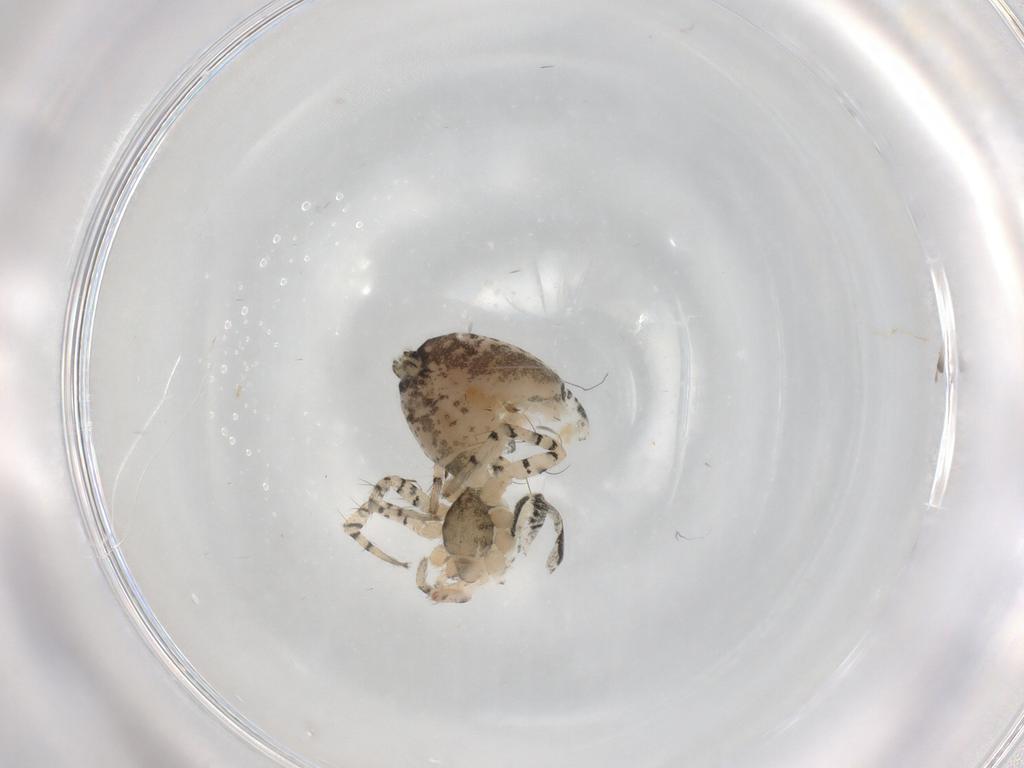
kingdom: Animalia
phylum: Arthropoda
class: Arachnida
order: Araneae
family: Anyphaenidae
